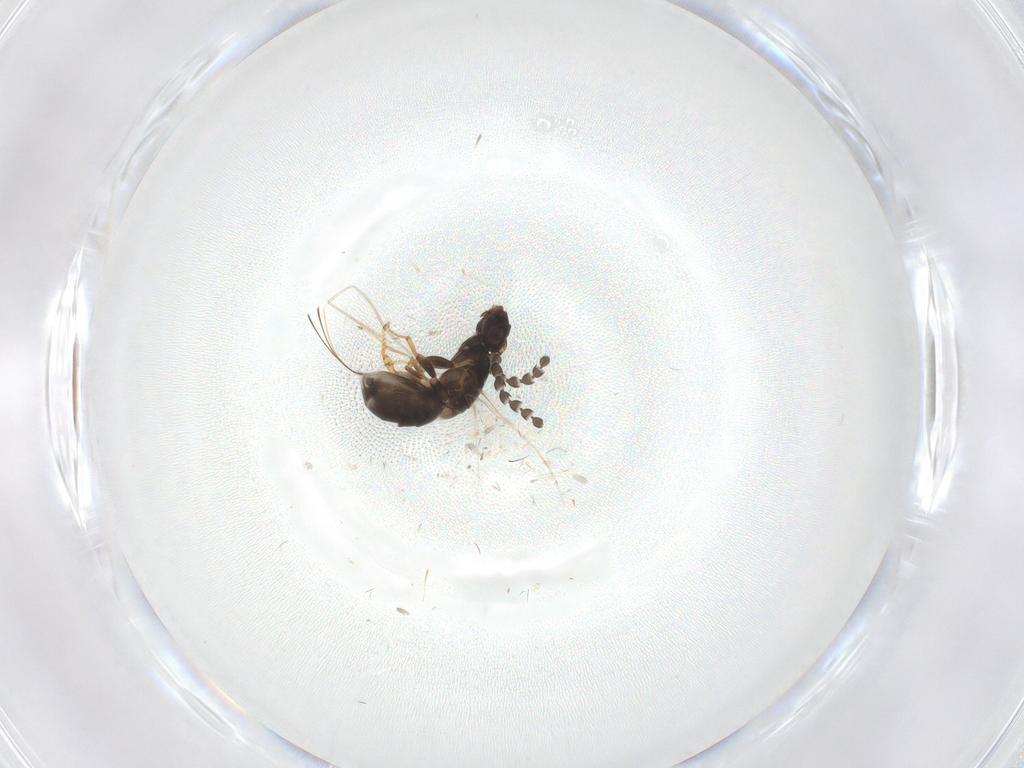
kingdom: Animalia
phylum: Arthropoda
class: Insecta
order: Hymenoptera
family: Agaonidae
